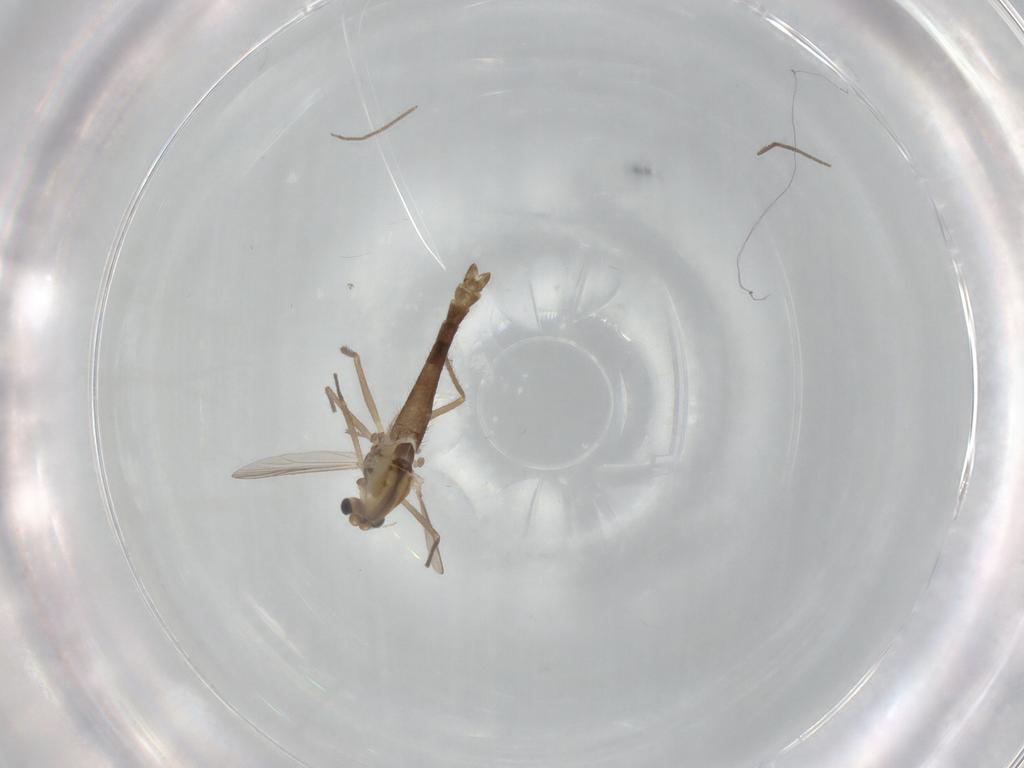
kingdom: Animalia
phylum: Arthropoda
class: Insecta
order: Diptera
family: Chironomidae
